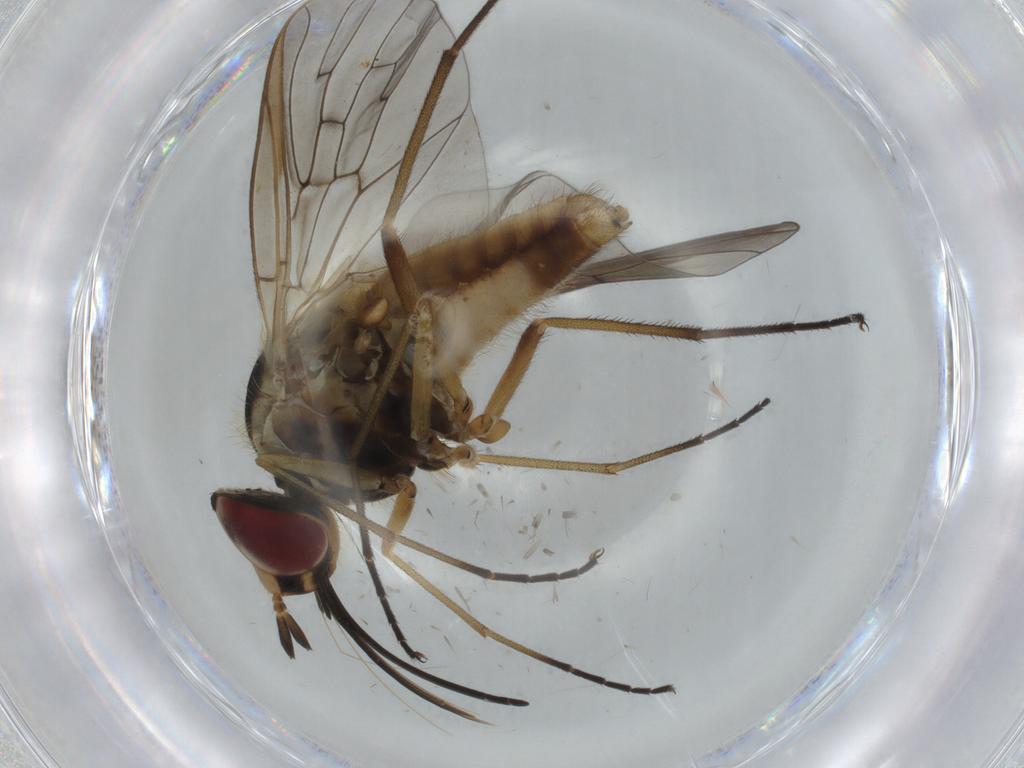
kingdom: Animalia
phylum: Arthropoda
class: Insecta
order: Diptera
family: Bombyliidae
